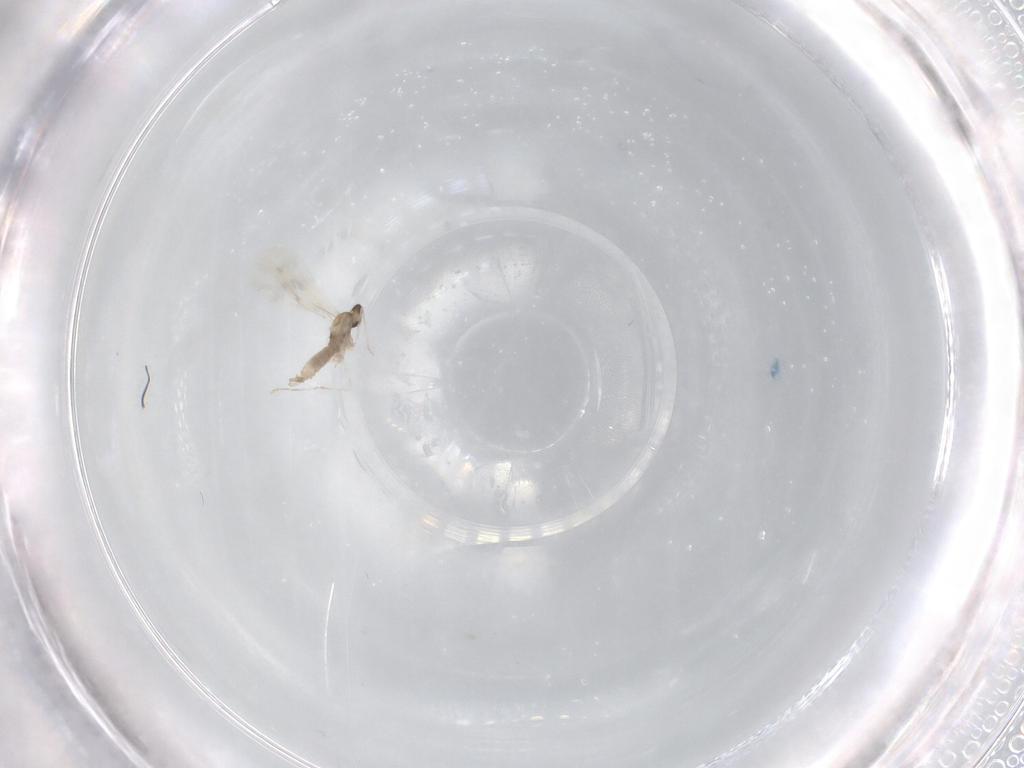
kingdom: Animalia
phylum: Arthropoda
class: Insecta
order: Diptera
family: Cecidomyiidae
